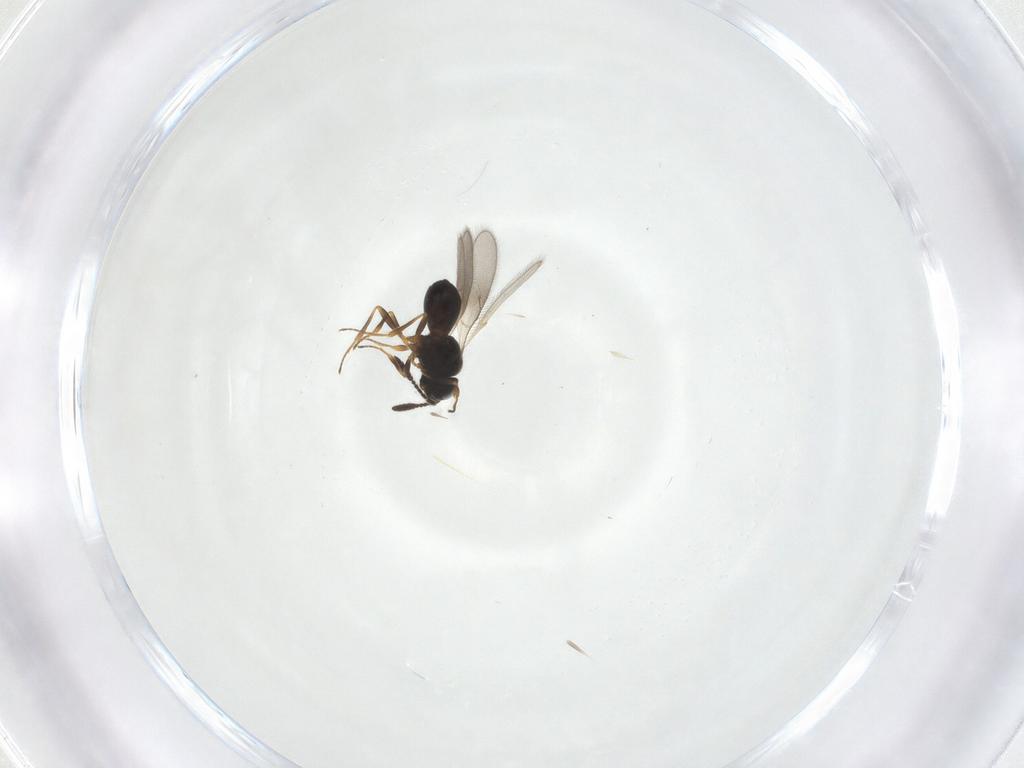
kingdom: Animalia
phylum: Arthropoda
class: Insecta
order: Hymenoptera
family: Scelionidae
